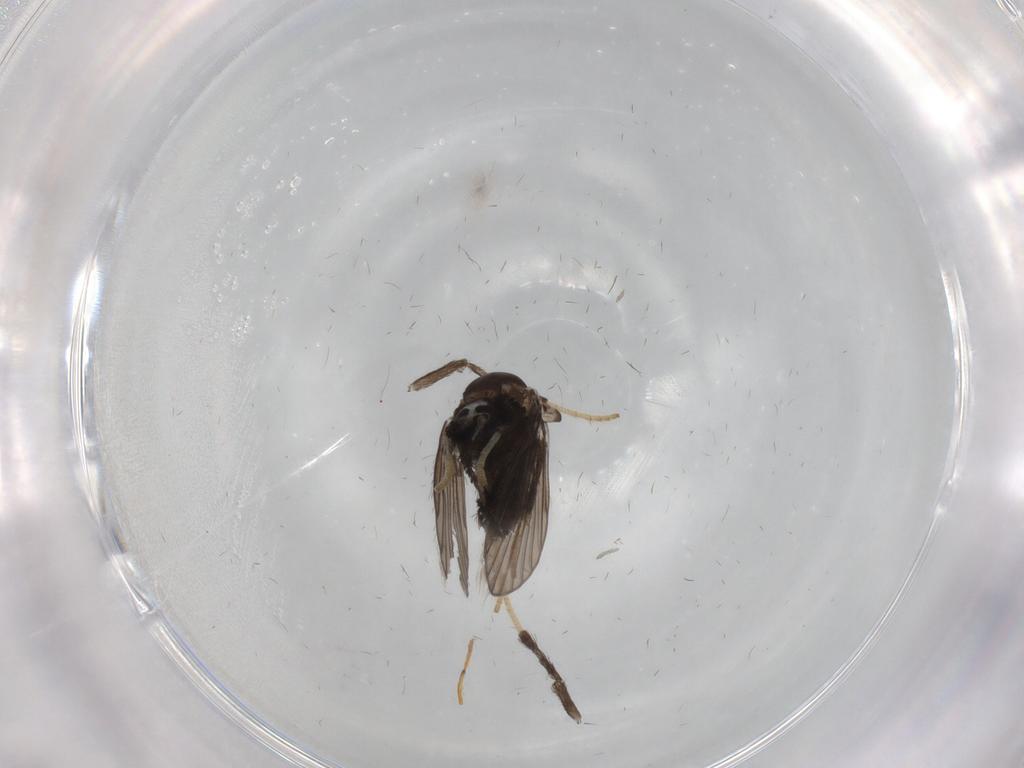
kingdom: Animalia
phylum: Arthropoda
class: Insecta
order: Diptera
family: Psychodidae
